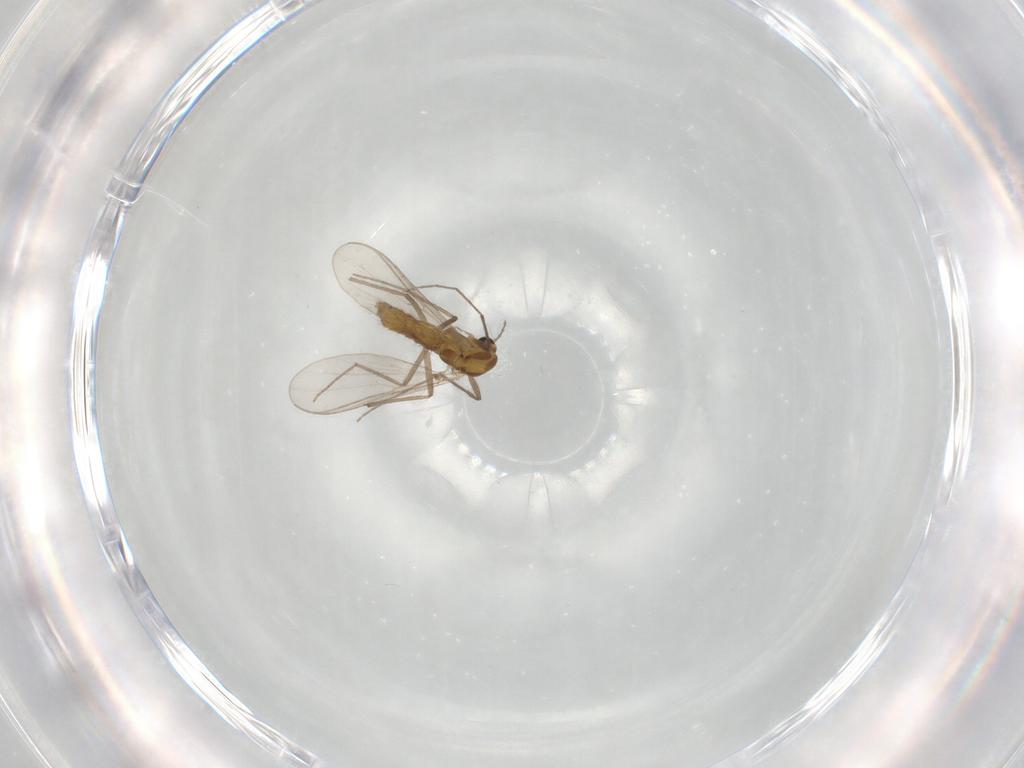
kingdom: Animalia
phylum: Arthropoda
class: Insecta
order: Diptera
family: Chironomidae
